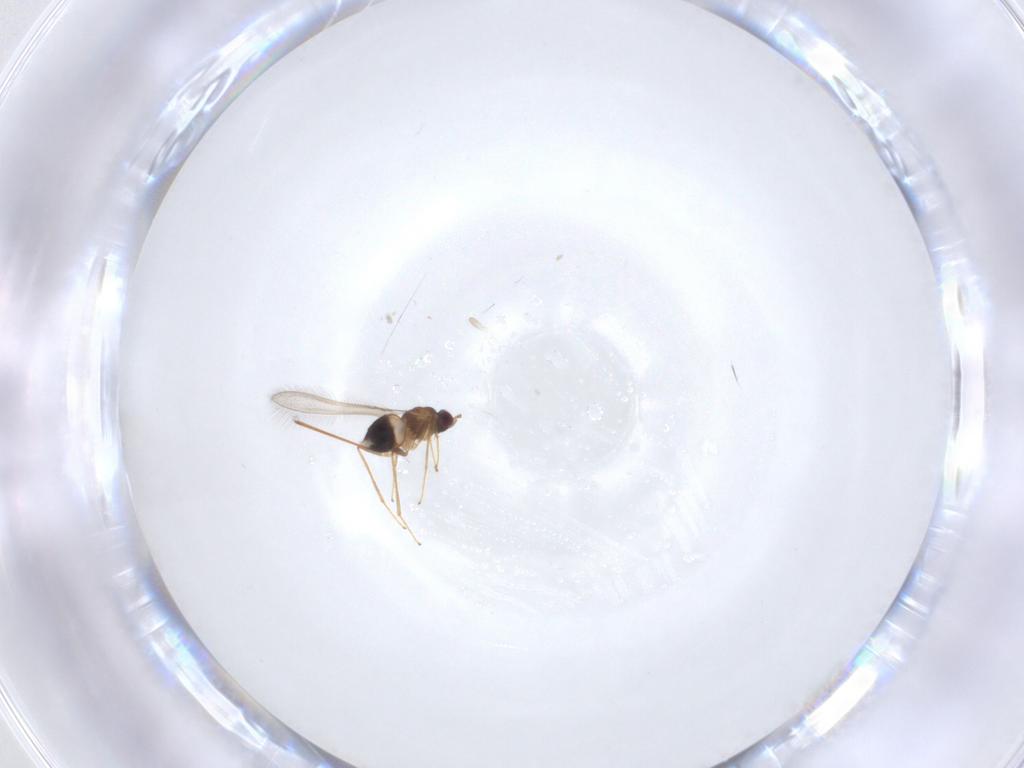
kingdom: Animalia
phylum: Arthropoda
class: Insecta
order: Hymenoptera
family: Mymaridae
